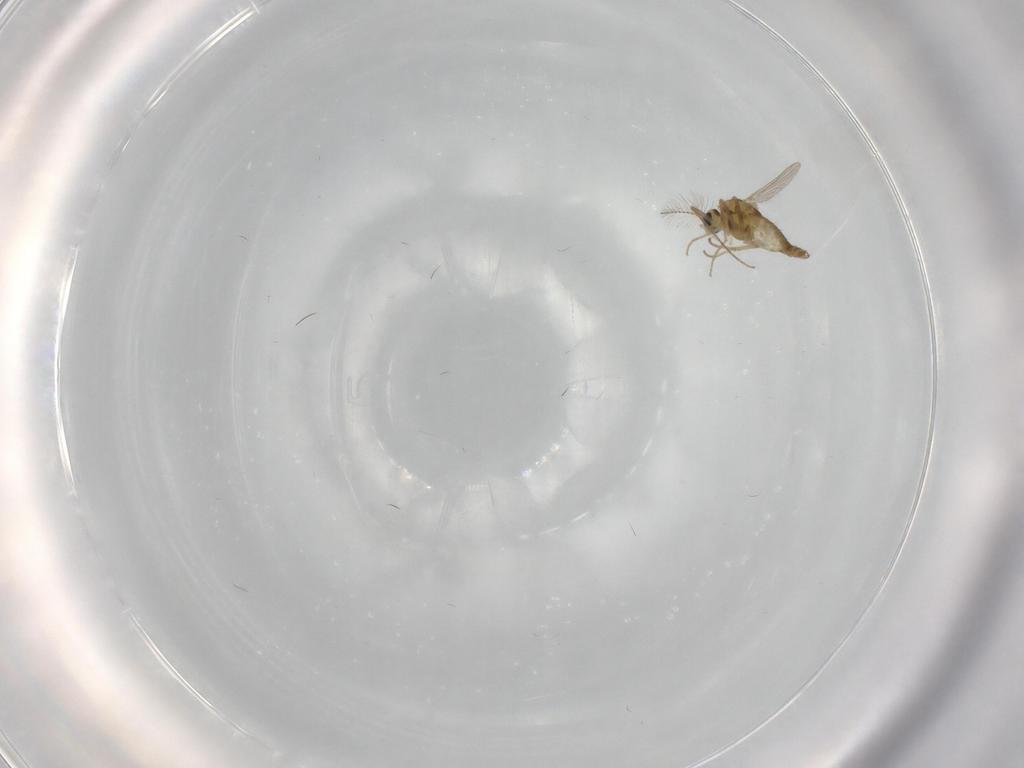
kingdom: Animalia
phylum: Arthropoda
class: Insecta
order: Diptera
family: Chironomidae
